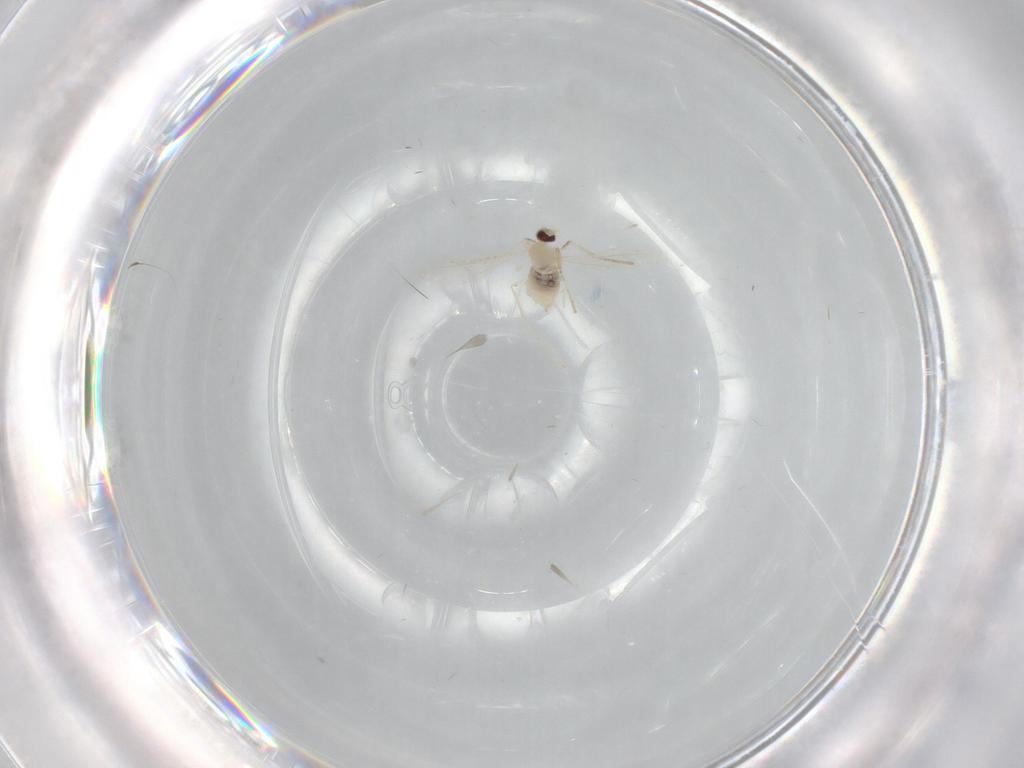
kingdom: Animalia
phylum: Arthropoda
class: Insecta
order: Diptera
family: Cecidomyiidae
